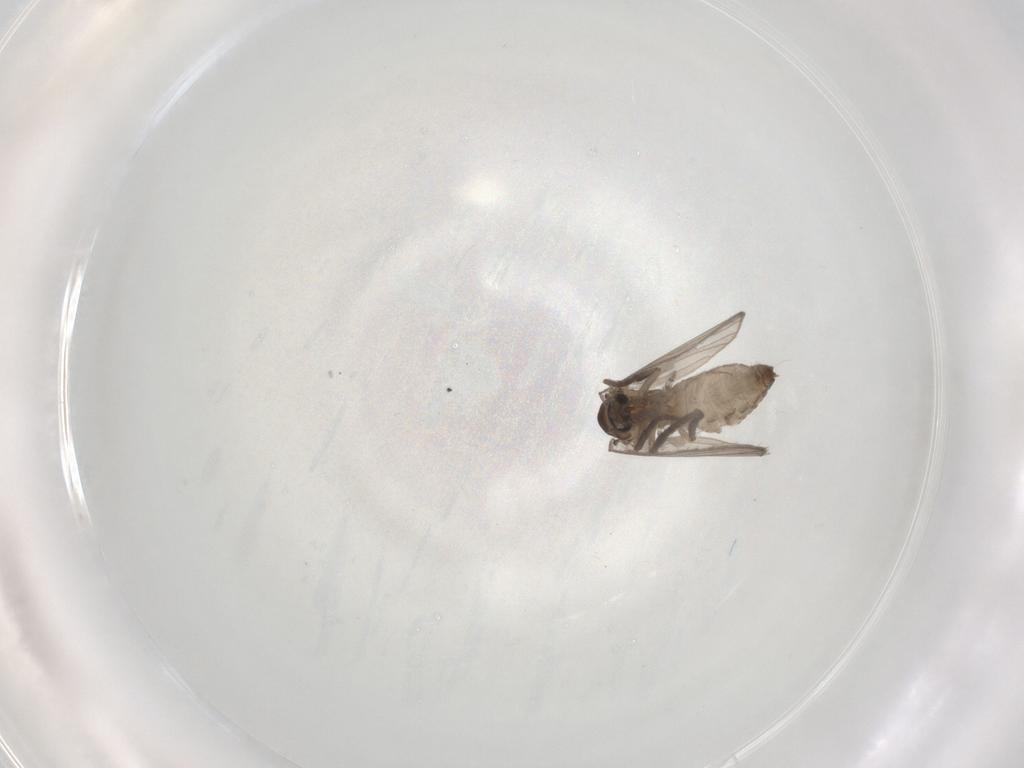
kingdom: Animalia
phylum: Arthropoda
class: Insecta
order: Diptera
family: Psychodidae
